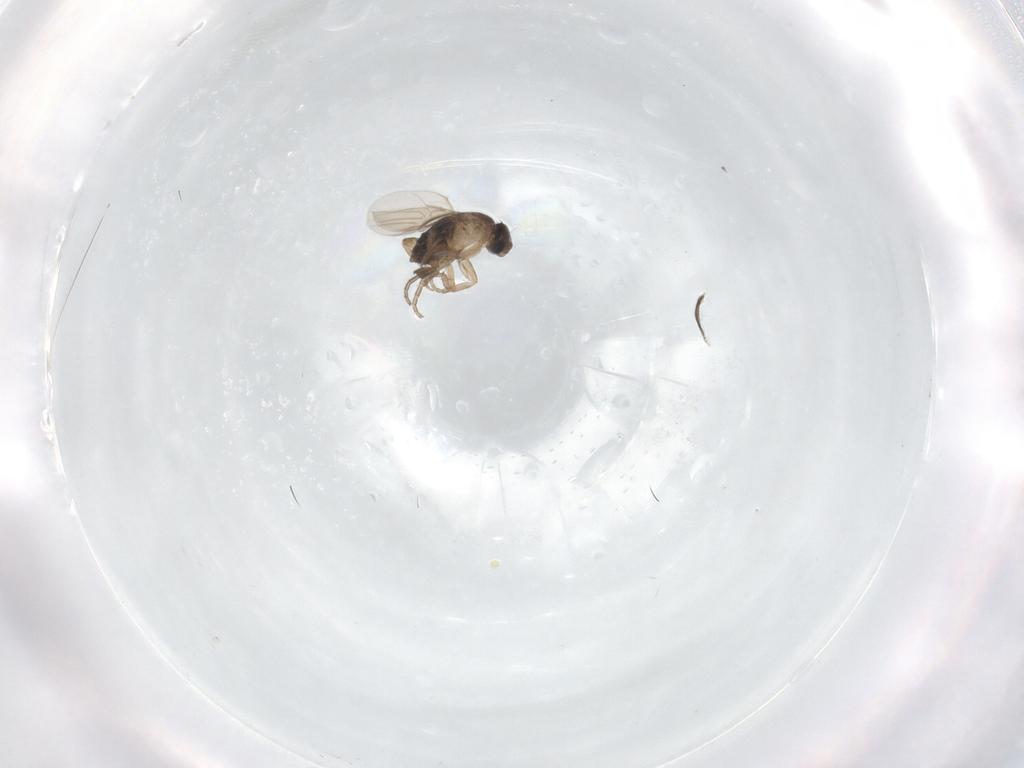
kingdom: Animalia
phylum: Arthropoda
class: Insecta
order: Diptera
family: Phoridae
